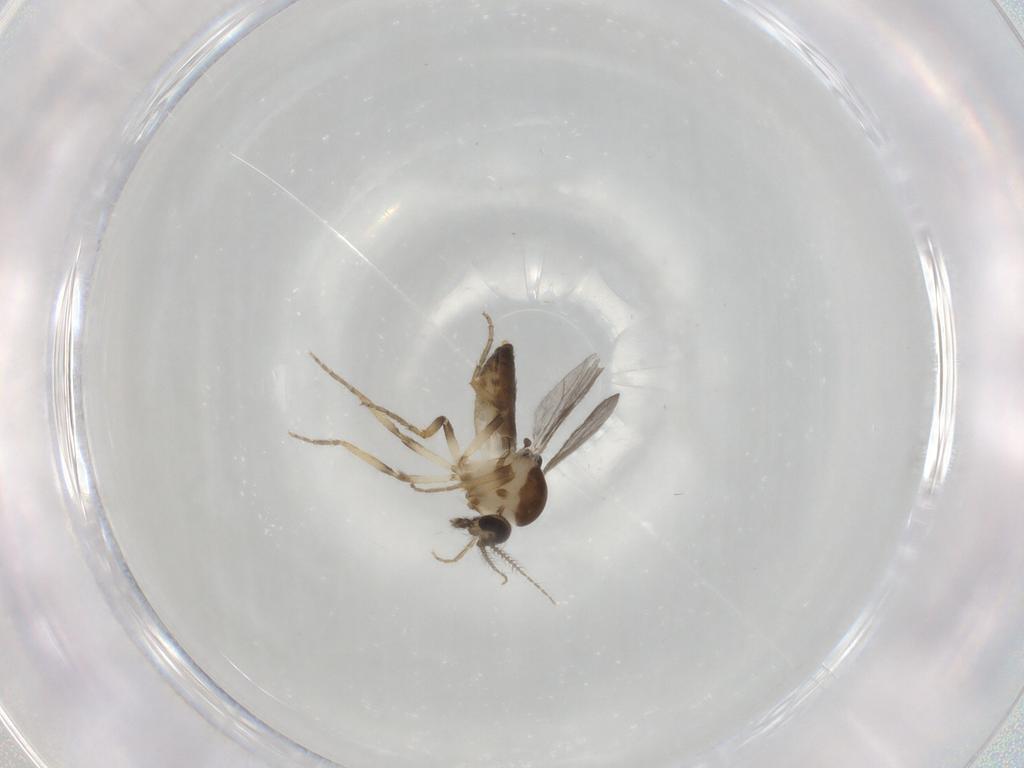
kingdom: Animalia
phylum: Arthropoda
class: Insecta
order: Diptera
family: Ceratopogonidae
